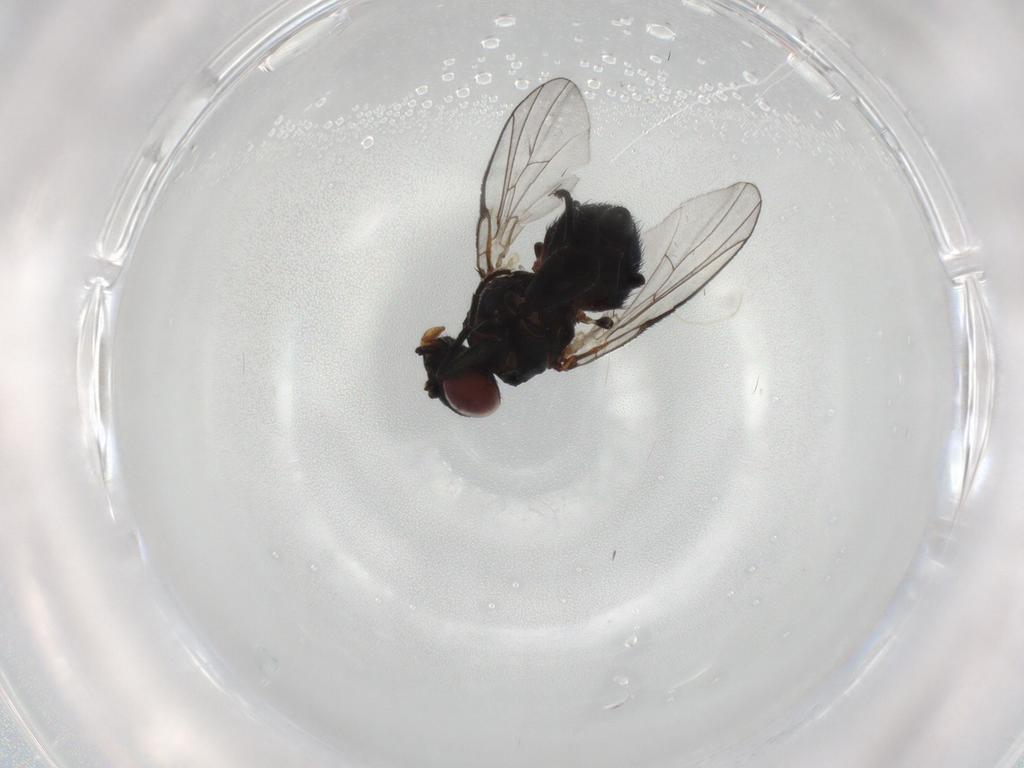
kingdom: Animalia
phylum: Arthropoda
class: Insecta
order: Diptera
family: Agromyzidae
